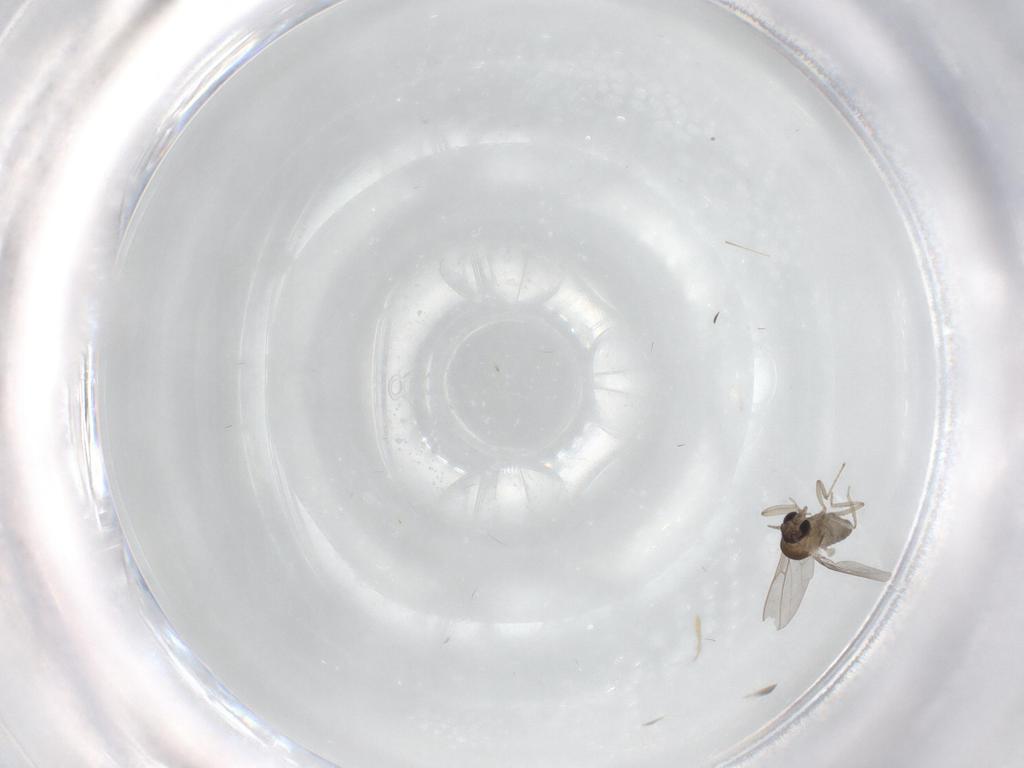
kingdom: Animalia
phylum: Arthropoda
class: Insecta
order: Diptera
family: Cecidomyiidae
